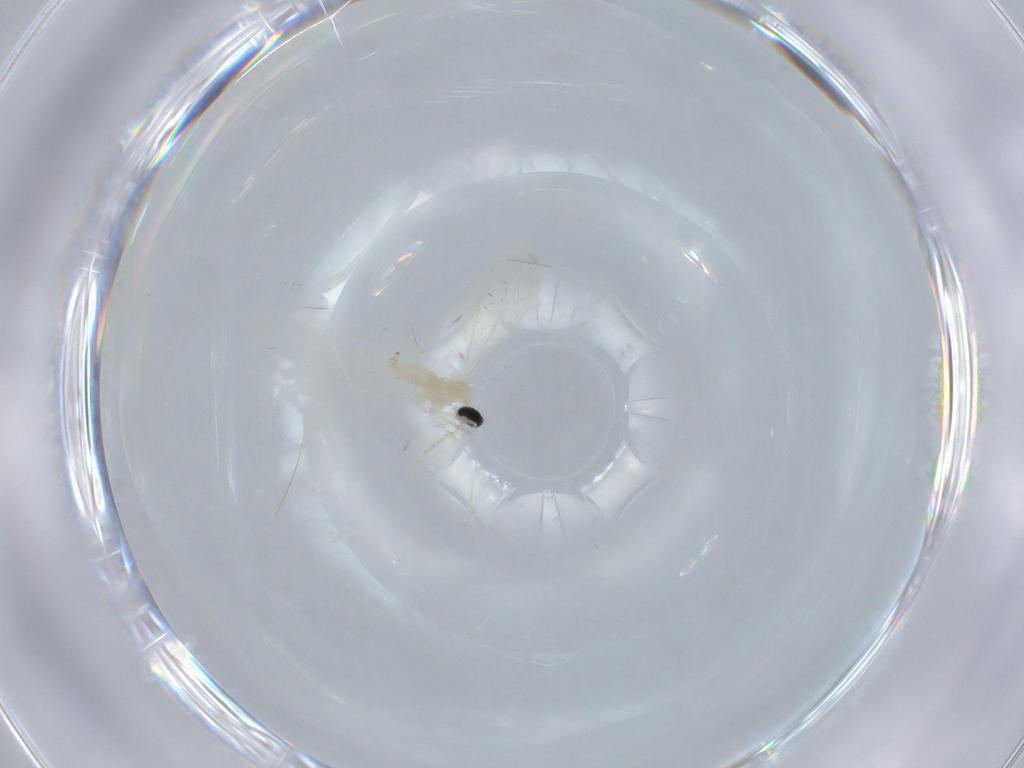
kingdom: Animalia
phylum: Arthropoda
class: Insecta
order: Diptera
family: Cecidomyiidae
